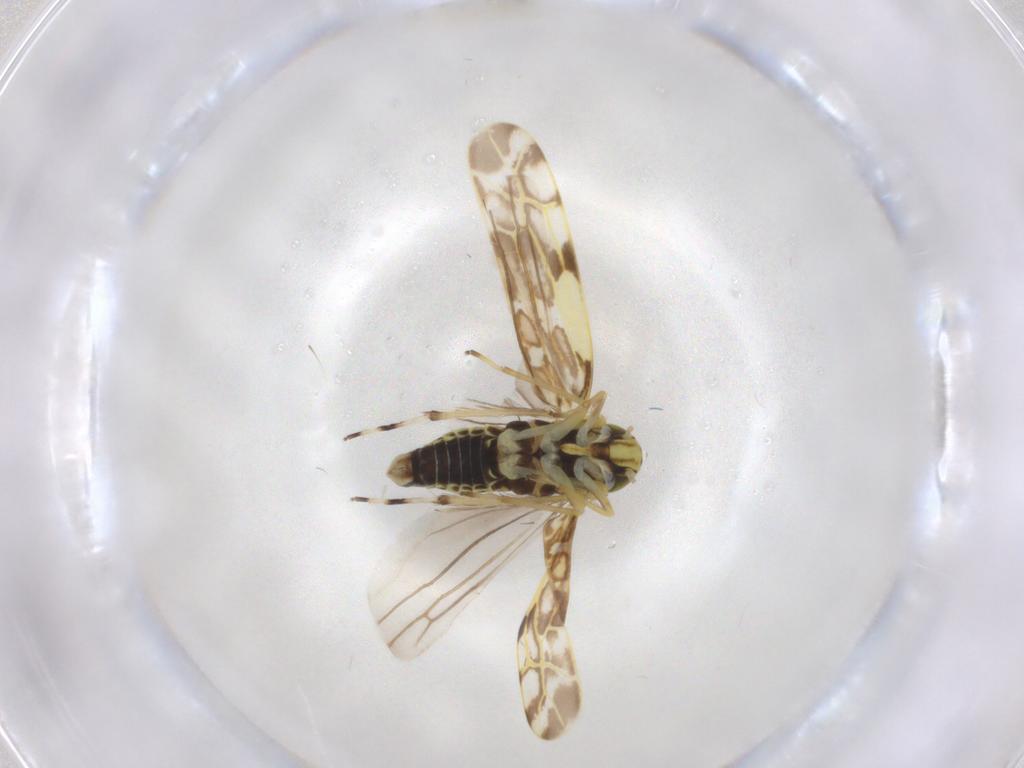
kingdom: Animalia
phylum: Arthropoda
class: Insecta
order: Hemiptera
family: Cicadellidae
